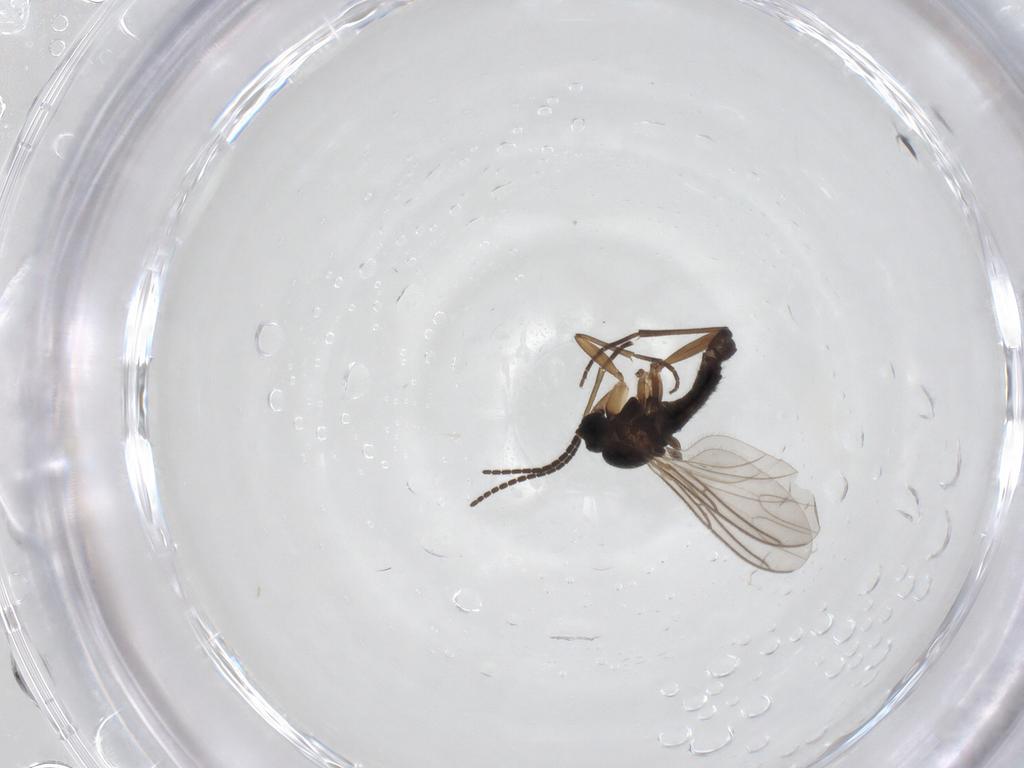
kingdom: Animalia
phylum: Arthropoda
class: Insecta
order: Diptera
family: Sciaridae
